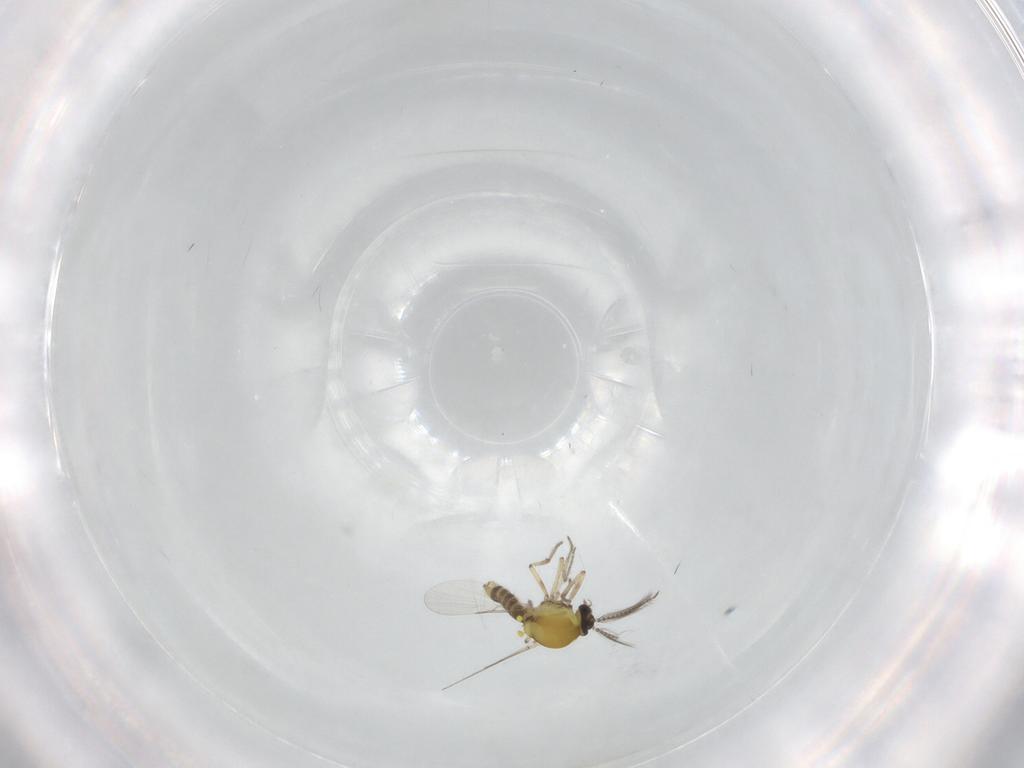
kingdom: Animalia
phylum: Arthropoda
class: Insecta
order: Diptera
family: Ceratopogonidae
